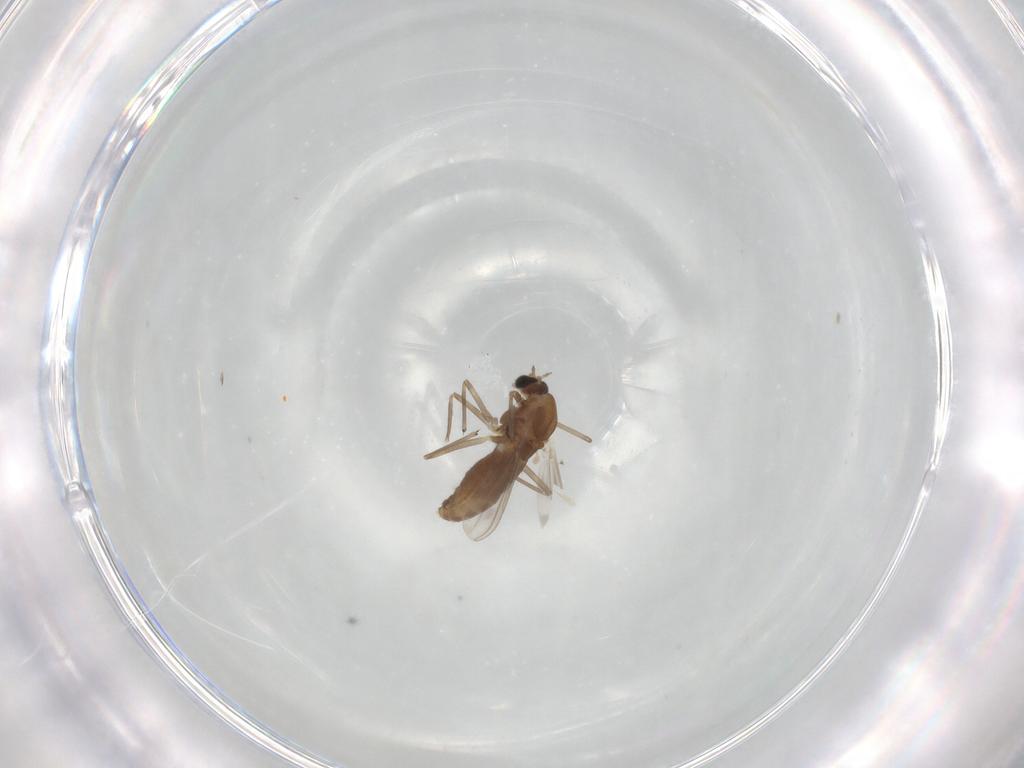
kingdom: Animalia
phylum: Arthropoda
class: Insecta
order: Diptera
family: Chironomidae
